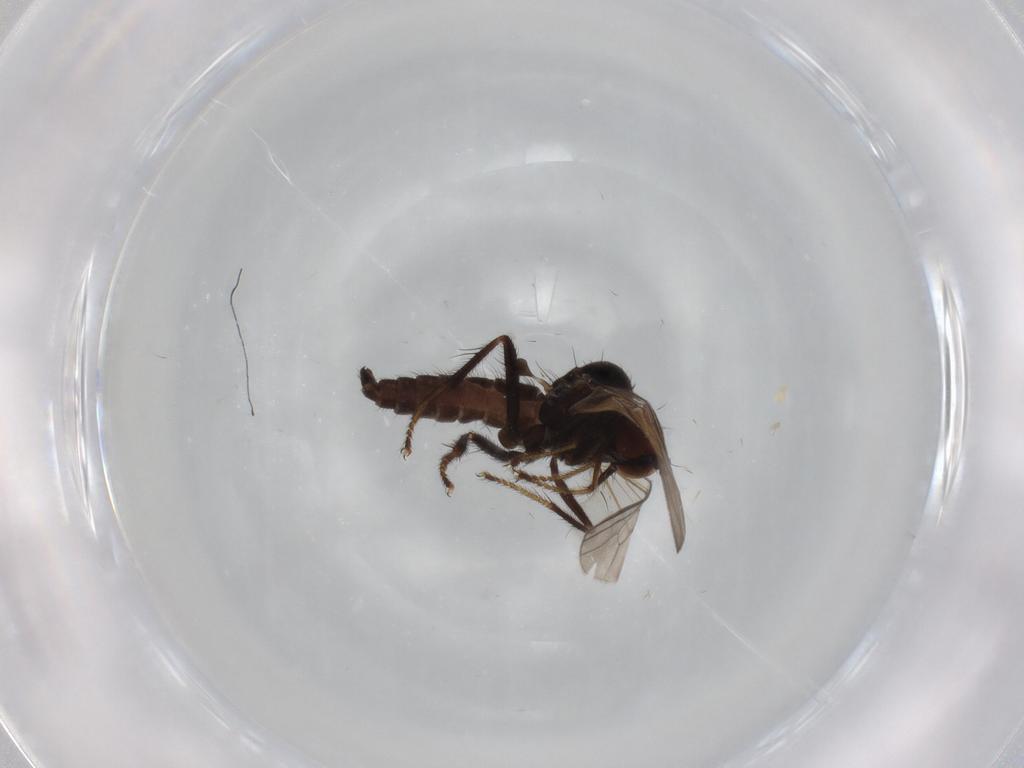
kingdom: Animalia
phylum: Arthropoda
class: Insecta
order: Diptera
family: Hybotidae
